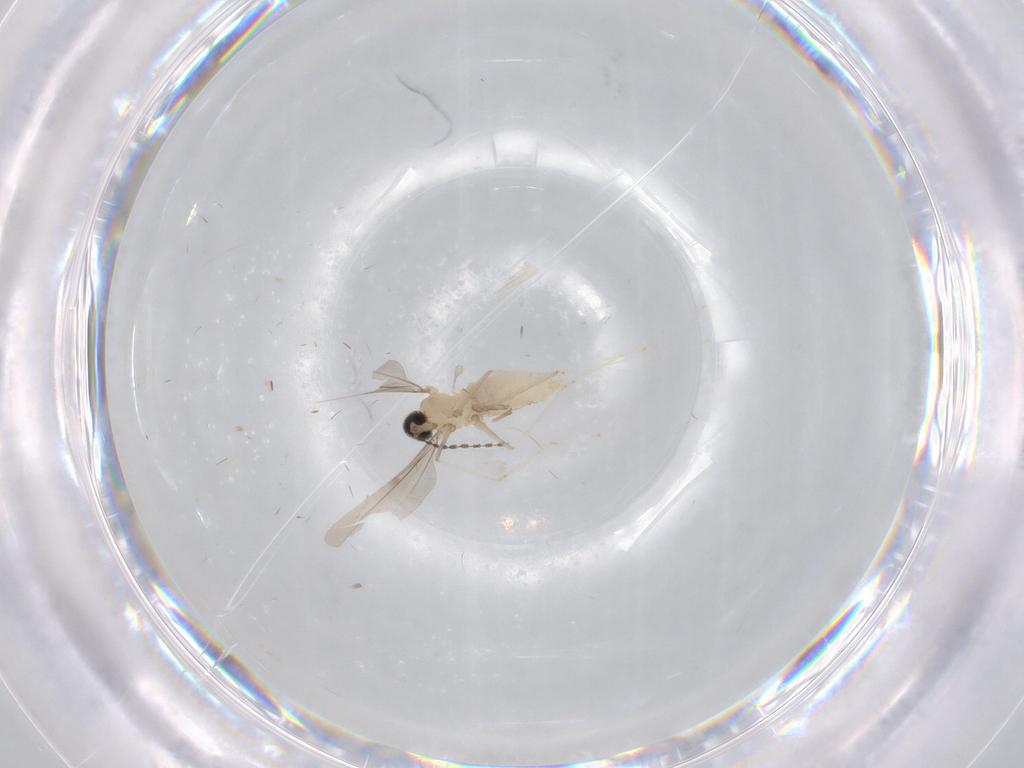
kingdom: Animalia
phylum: Arthropoda
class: Insecta
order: Diptera
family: Cecidomyiidae
